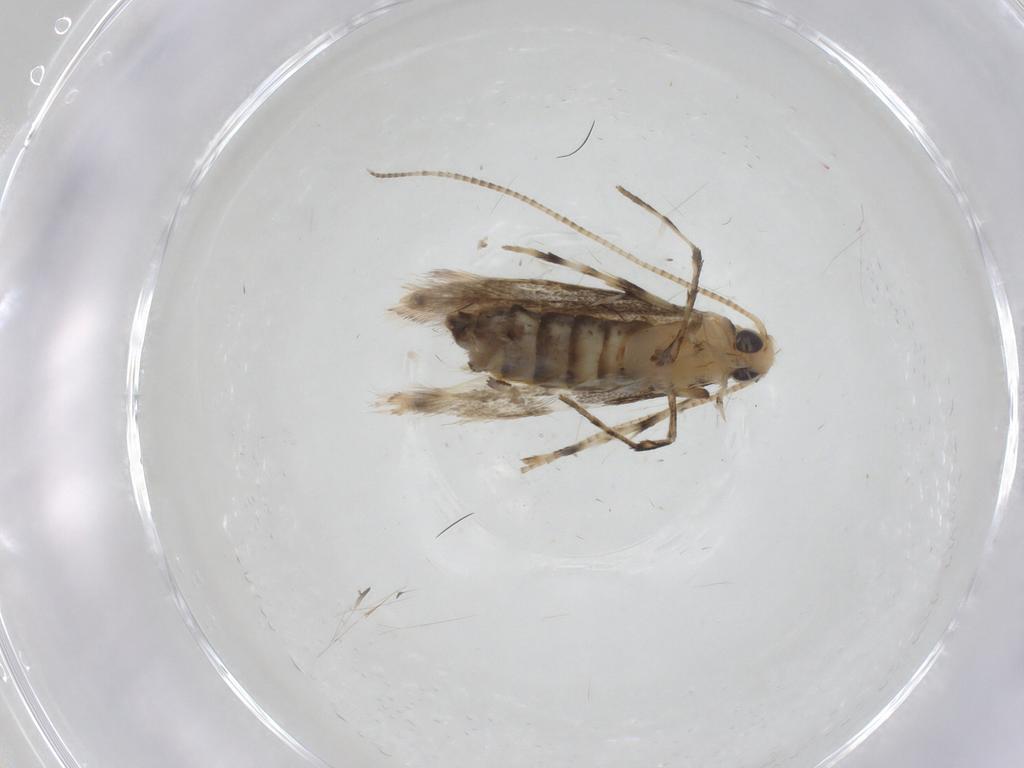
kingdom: Animalia
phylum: Arthropoda
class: Insecta
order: Lepidoptera
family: Gracillariidae
